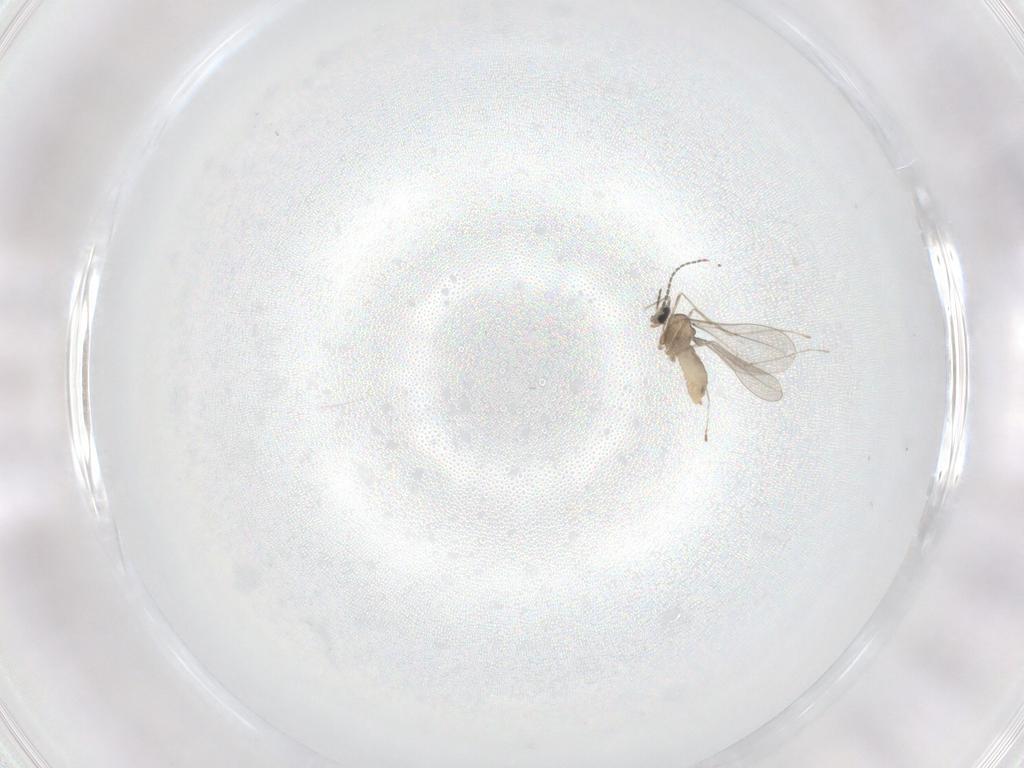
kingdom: Animalia
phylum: Arthropoda
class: Insecta
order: Diptera
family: Cecidomyiidae
